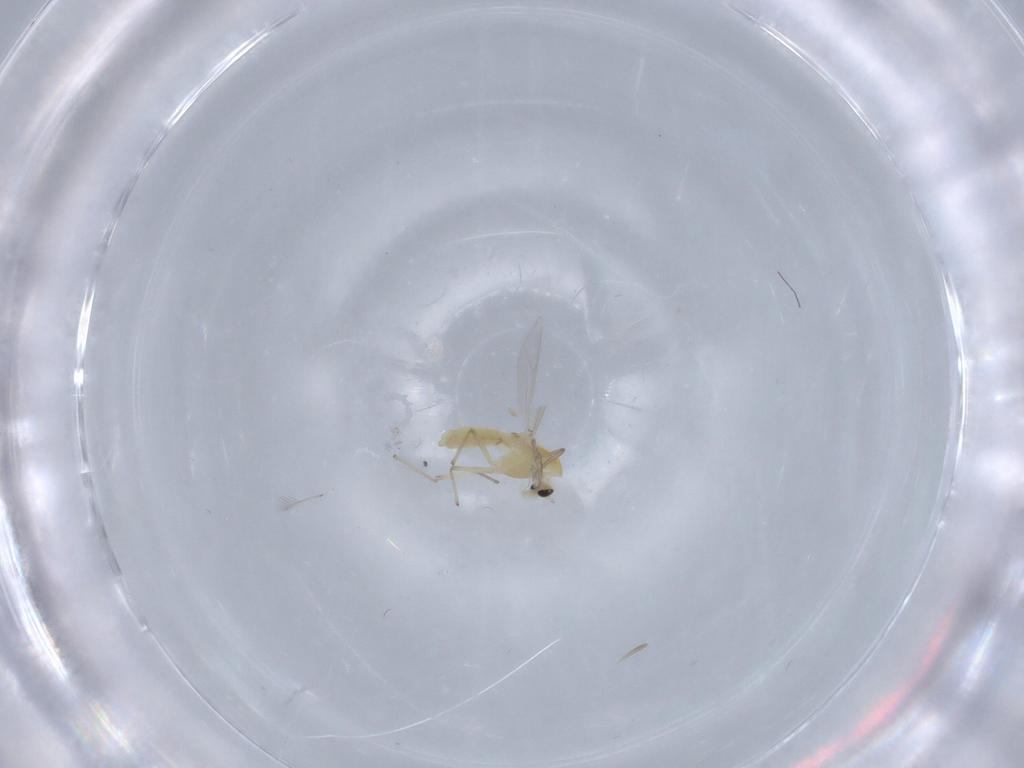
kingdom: Animalia
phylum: Arthropoda
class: Insecta
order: Diptera
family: Chironomidae
